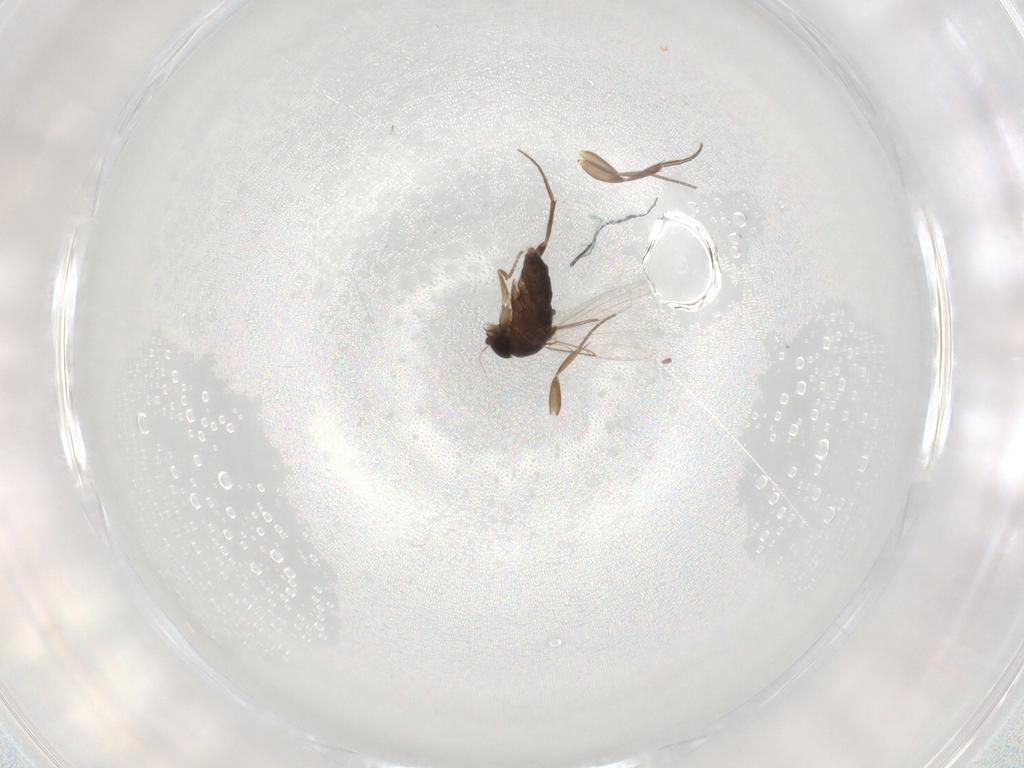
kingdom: Animalia
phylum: Arthropoda
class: Insecta
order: Diptera
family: Phoridae
